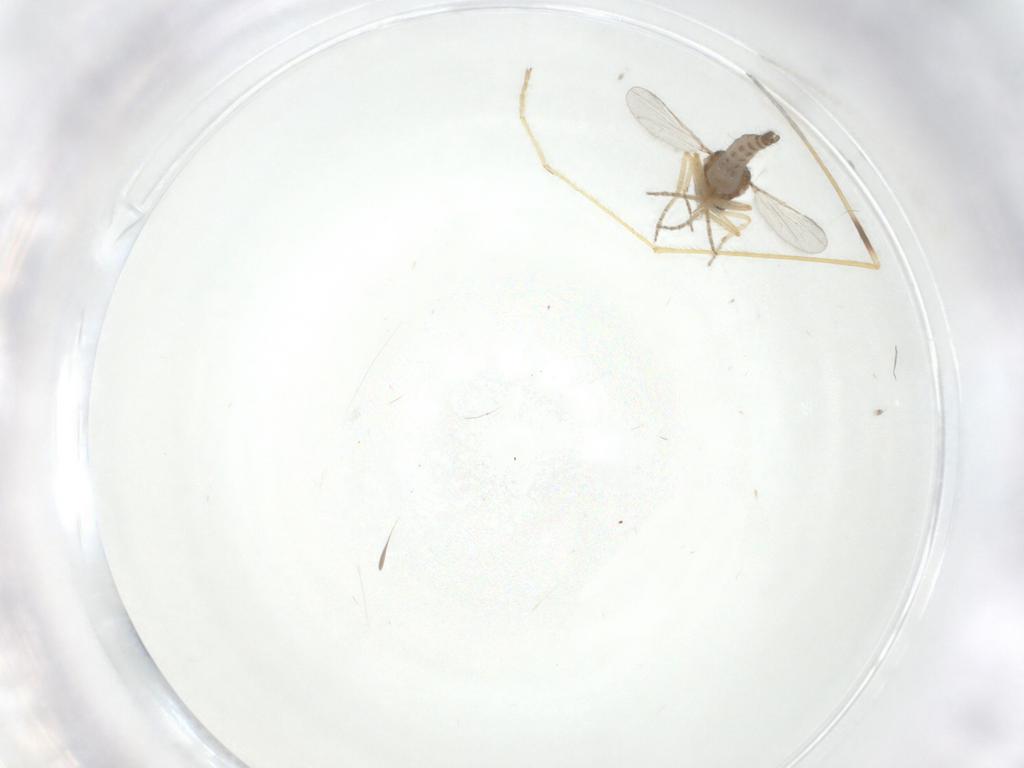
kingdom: Animalia
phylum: Arthropoda
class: Insecta
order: Diptera
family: Ceratopogonidae
